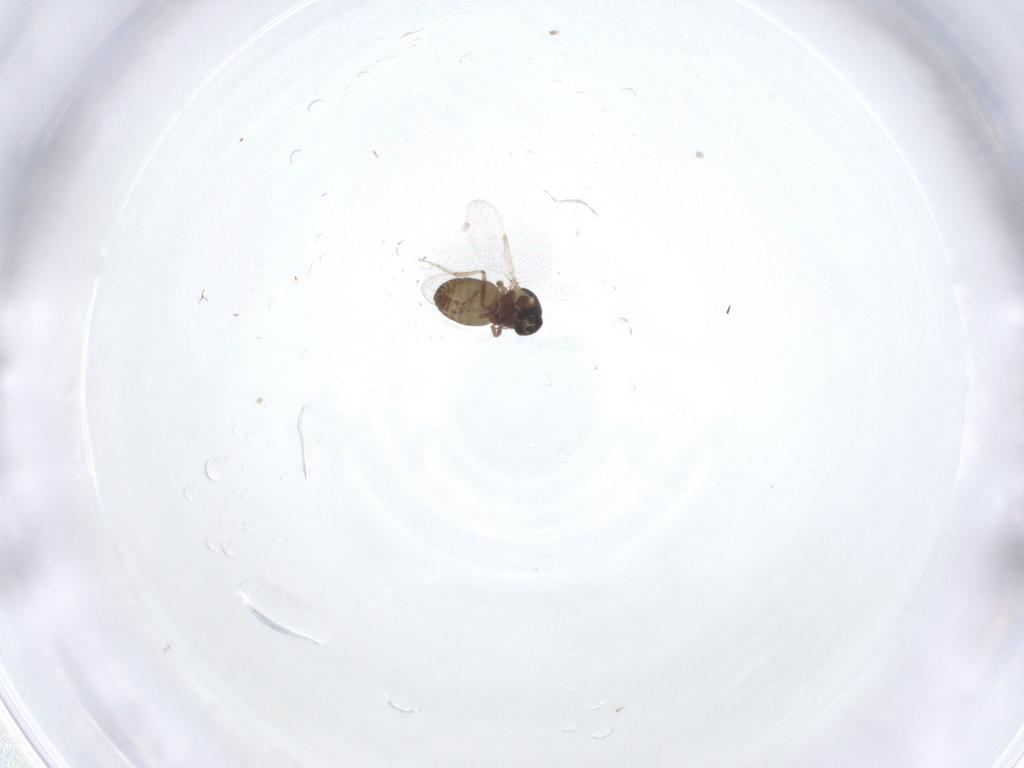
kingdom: Animalia
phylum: Arthropoda
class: Insecta
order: Diptera
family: Ceratopogonidae
